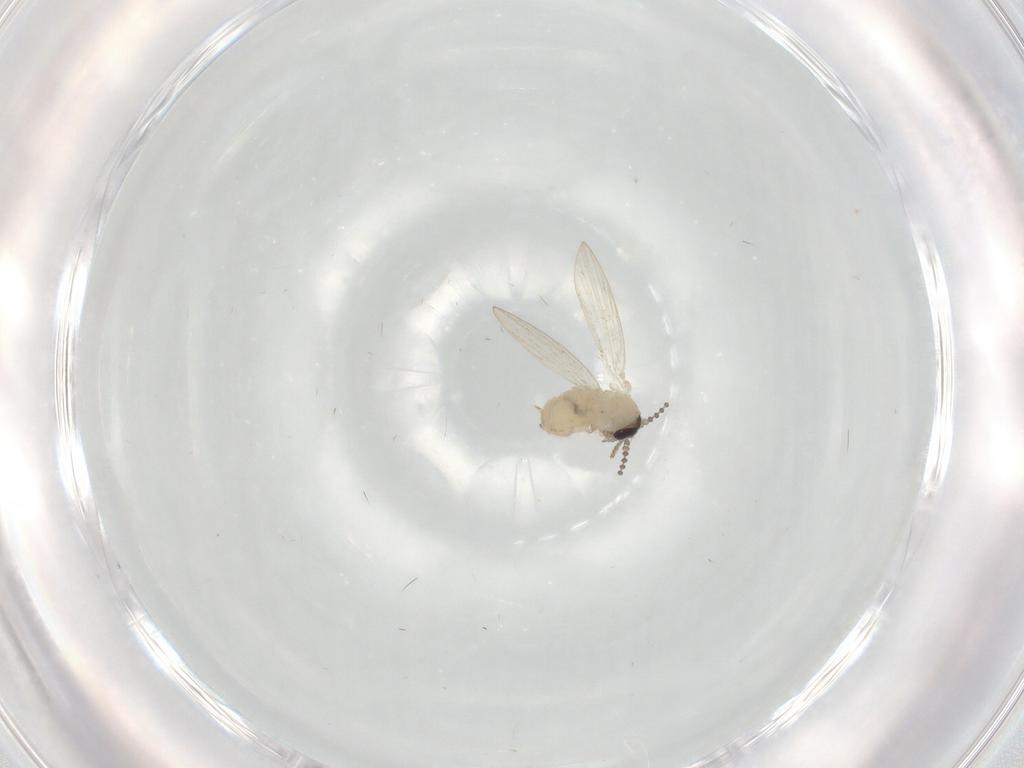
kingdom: Animalia
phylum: Arthropoda
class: Insecta
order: Diptera
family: Psychodidae
